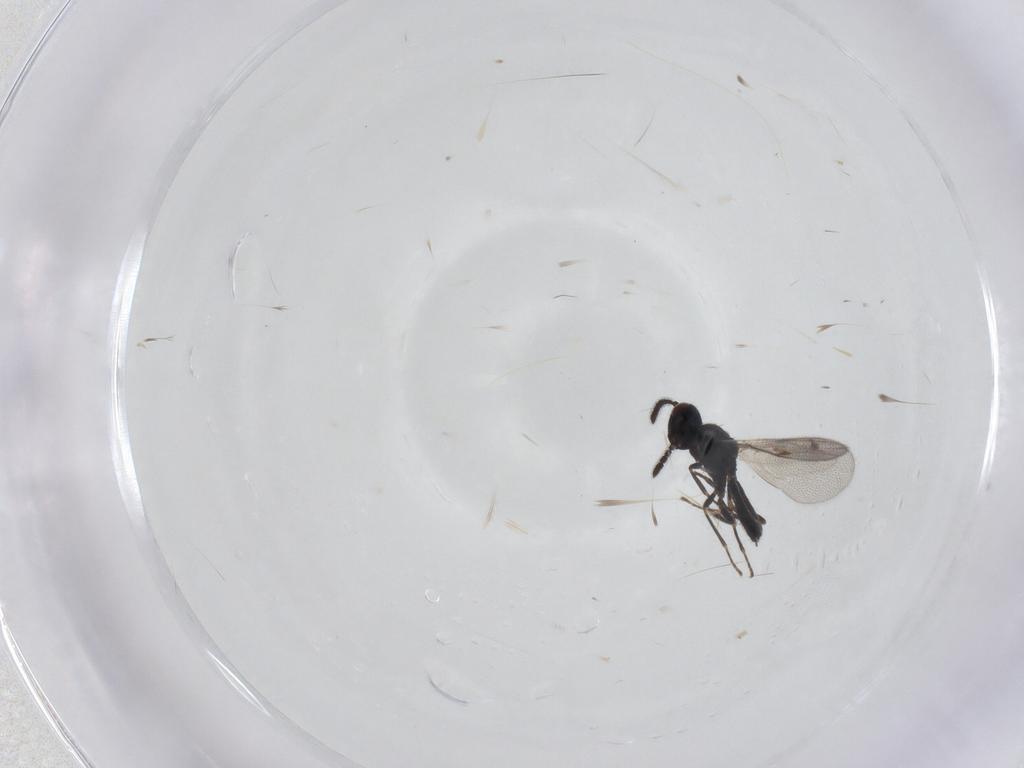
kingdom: Animalia
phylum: Arthropoda
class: Insecta
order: Hymenoptera
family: Pteromalidae
